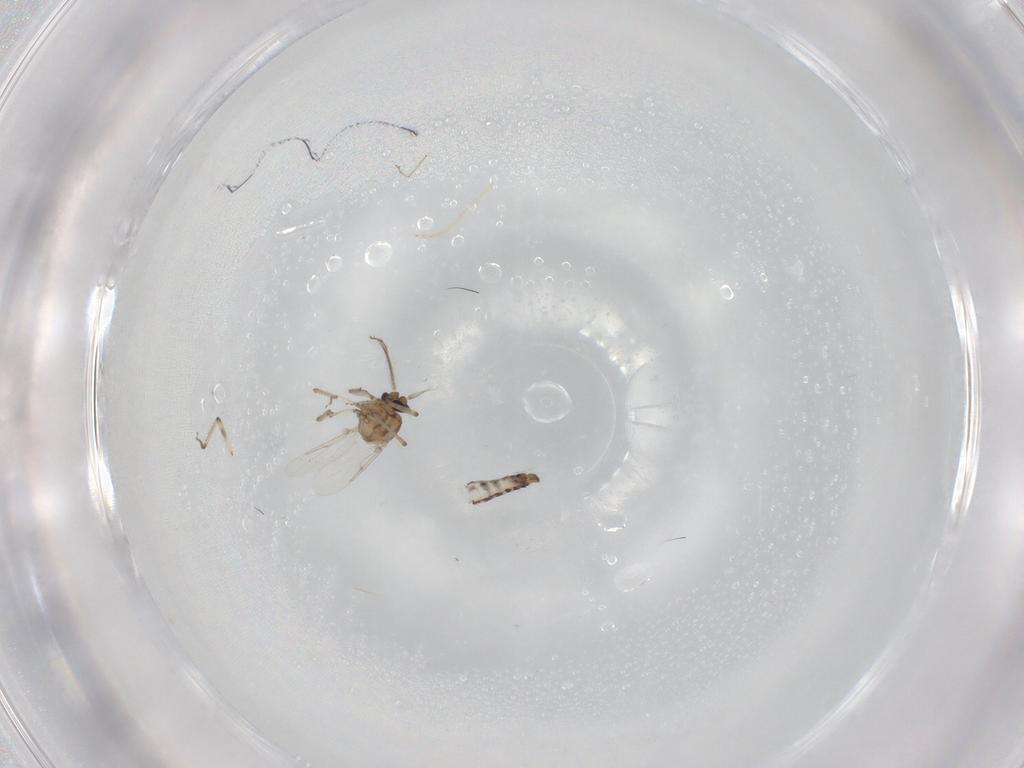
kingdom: Animalia
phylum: Arthropoda
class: Insecta
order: Diptera
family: Ceratopogonidae
